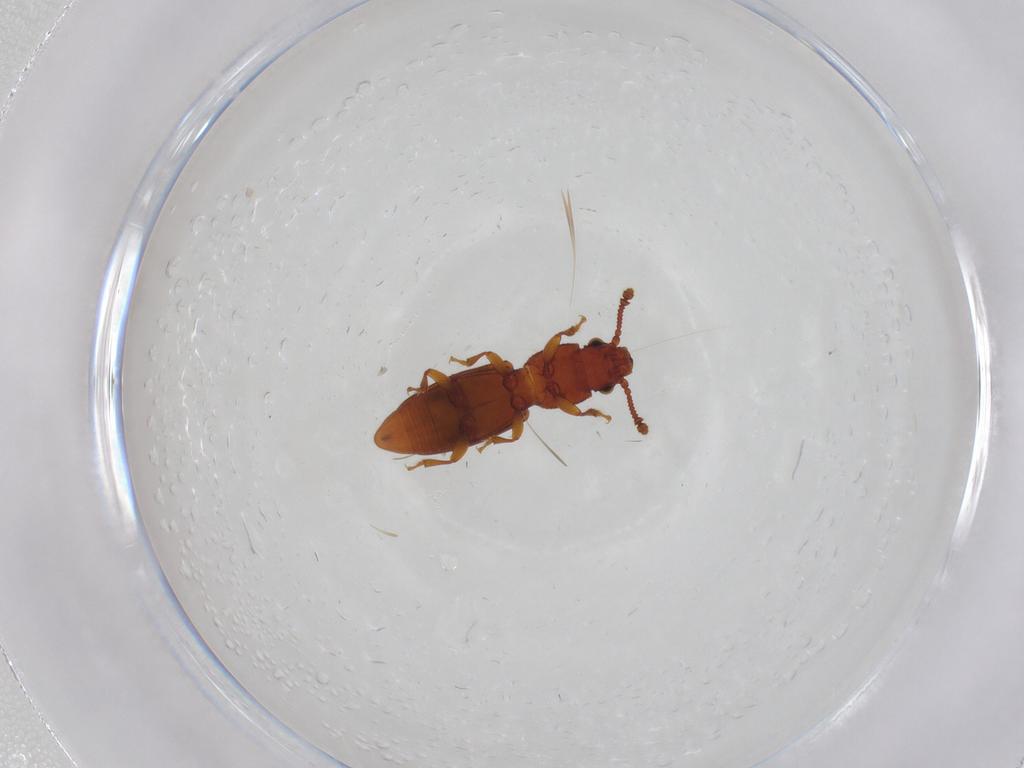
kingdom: Animalia
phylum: Arthropoda
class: Insecta
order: Coleoptera
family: Monotomidae
